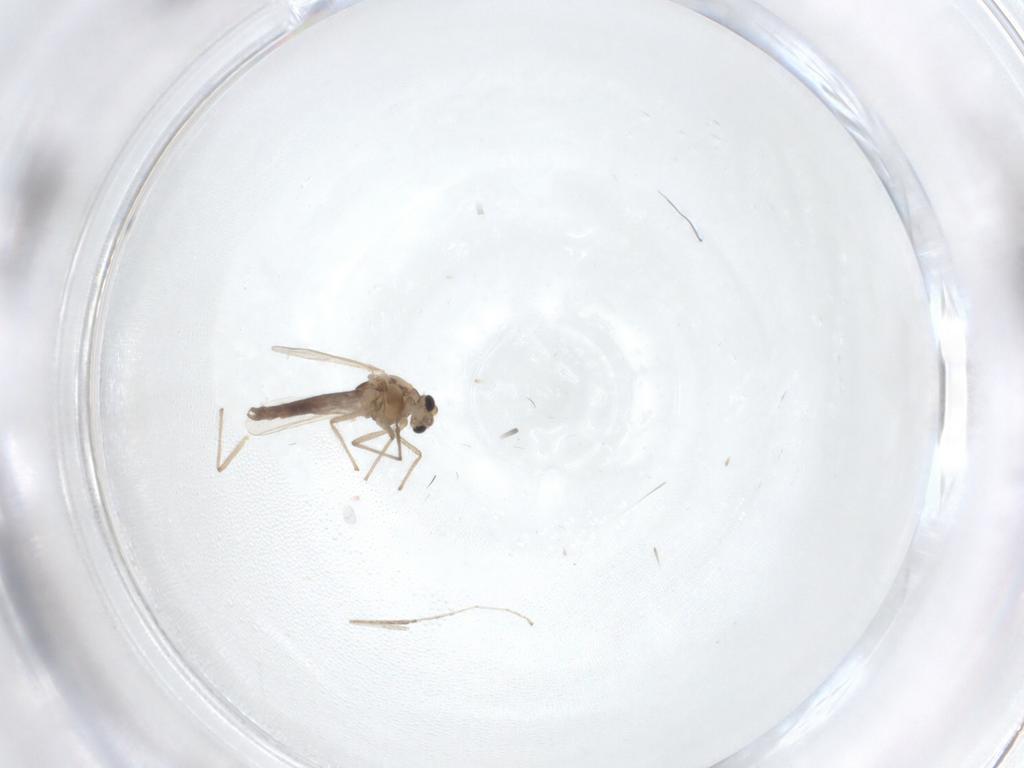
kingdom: Animalia
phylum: Arthropoda
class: Insecta
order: Diptera
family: Chironomidae
